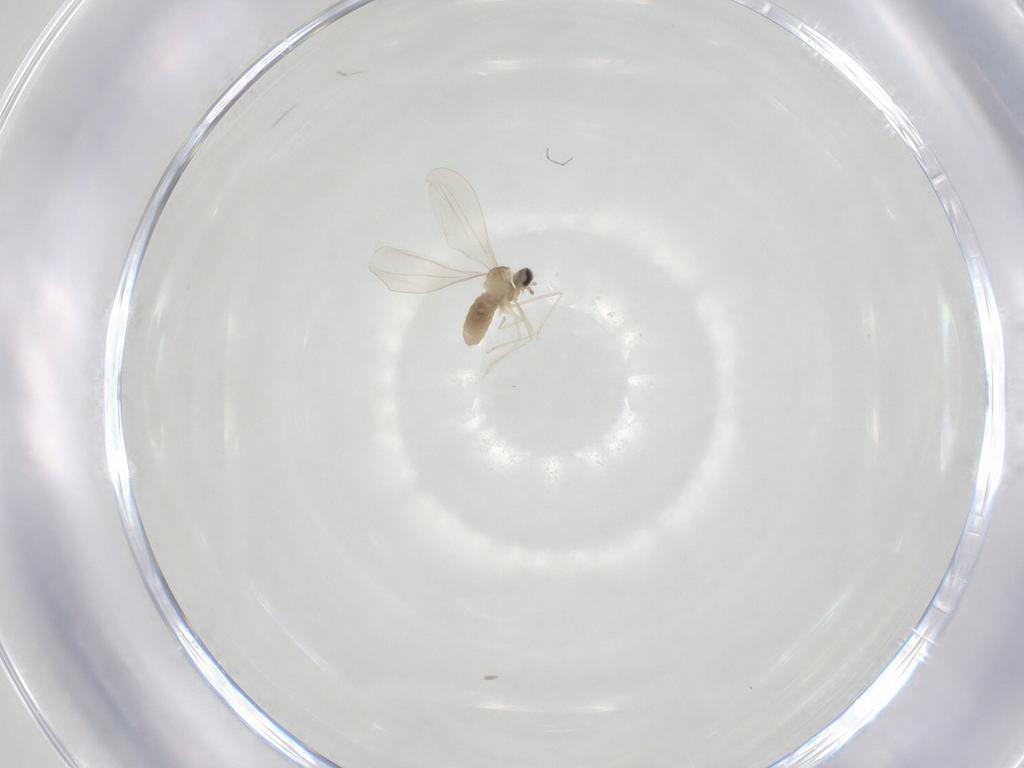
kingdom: Animalia
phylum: Arthropoda
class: Insecta
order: Diptera
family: Cecidomyiidae
